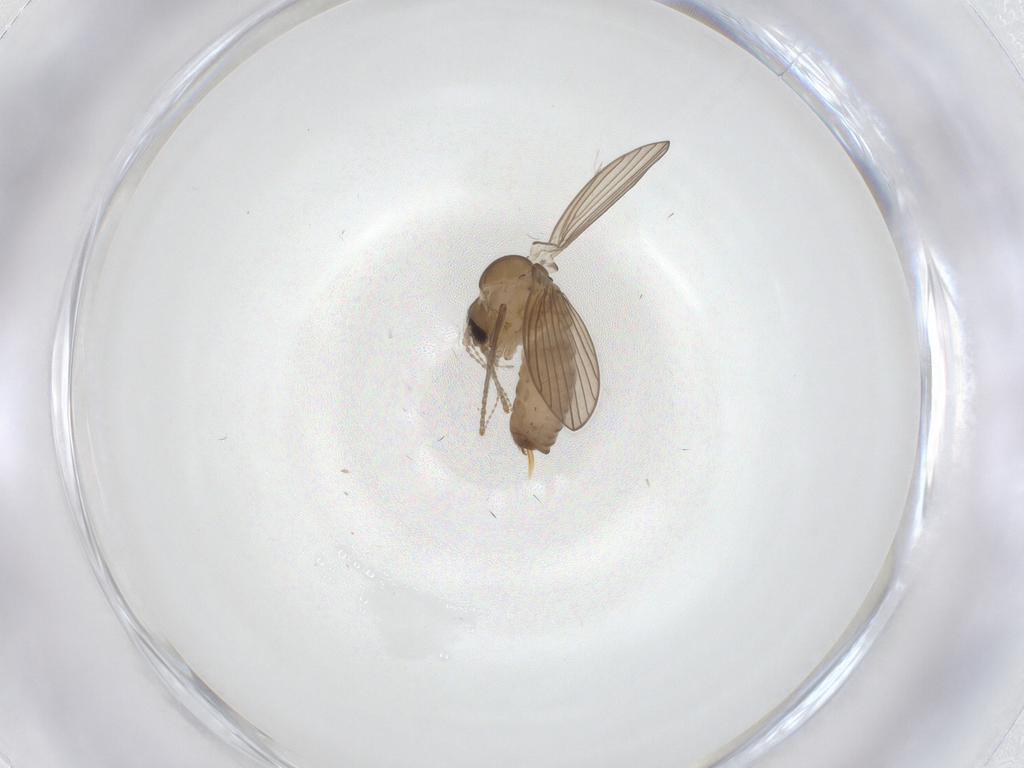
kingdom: Animalia
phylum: Arthropoda
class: Insecta
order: Diptera
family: Psychodidae
